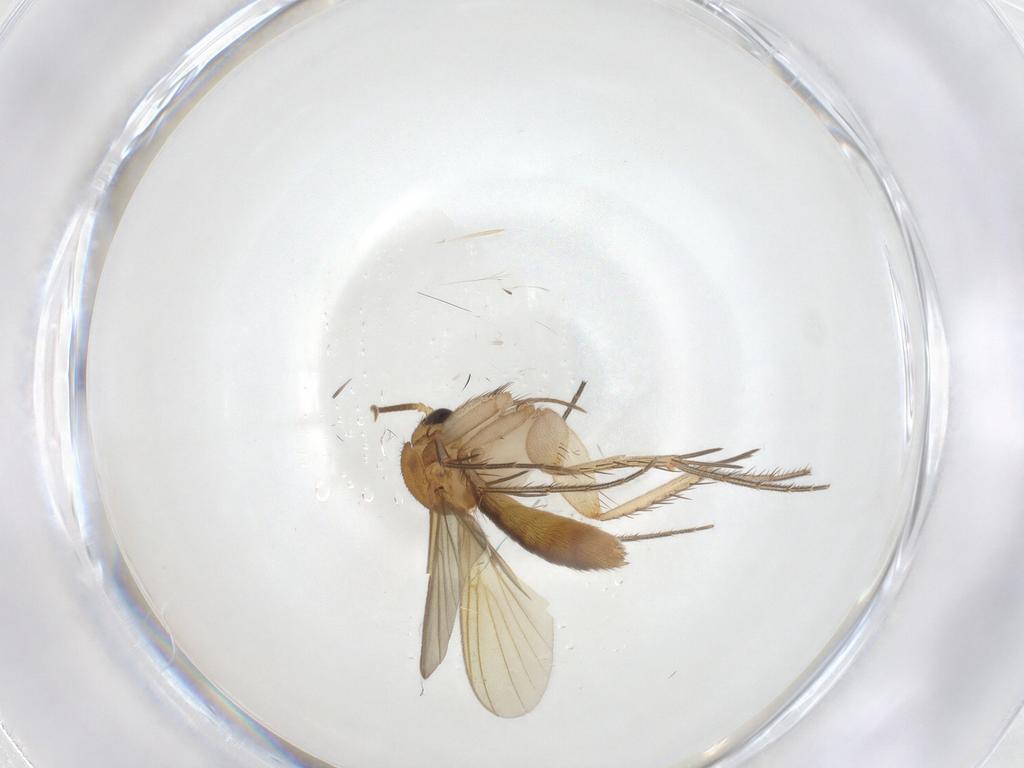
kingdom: Animalia
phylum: Arthropoda
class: Insecta
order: Diptera
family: Mycetophilidae
